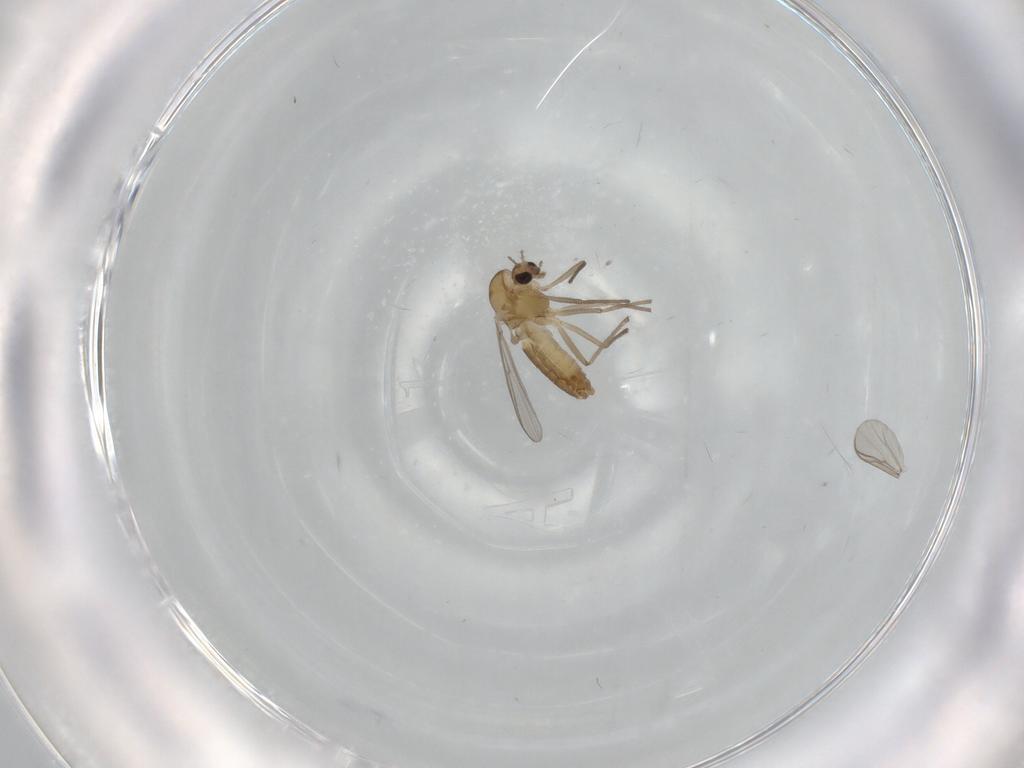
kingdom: Animalia
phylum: Arthropoda
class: Insecta
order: Diptera
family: Chironomidae
